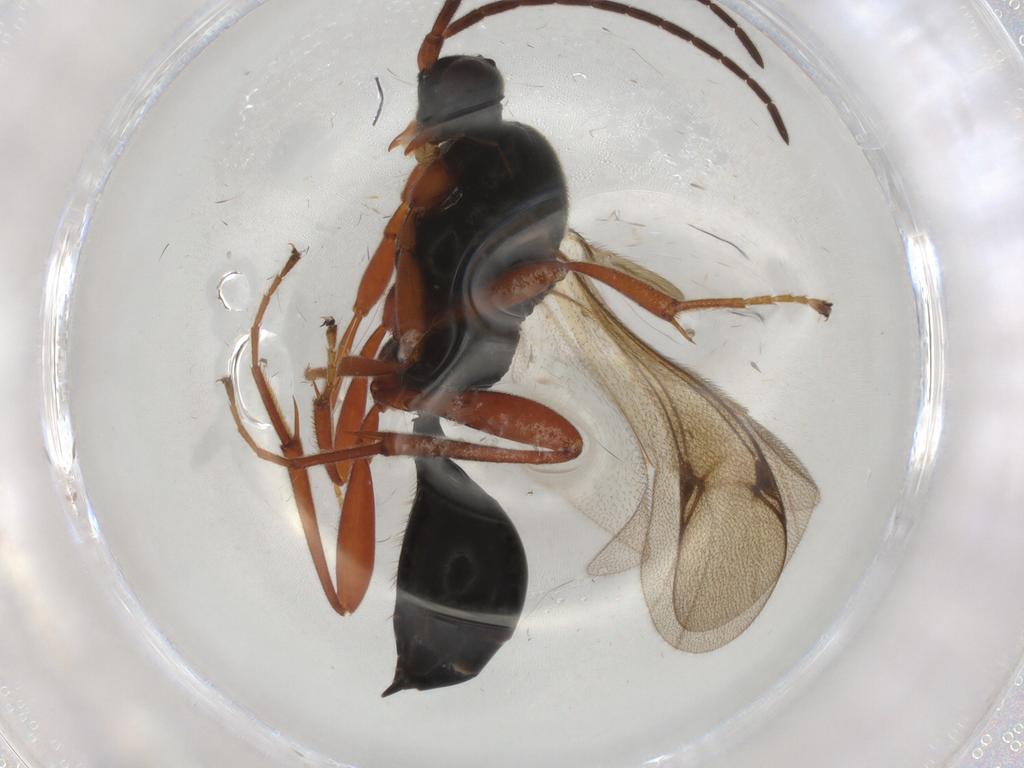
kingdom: Animalia
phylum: Arthropoda
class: Insecta
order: Hymenoptera
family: Proctotrupidae
